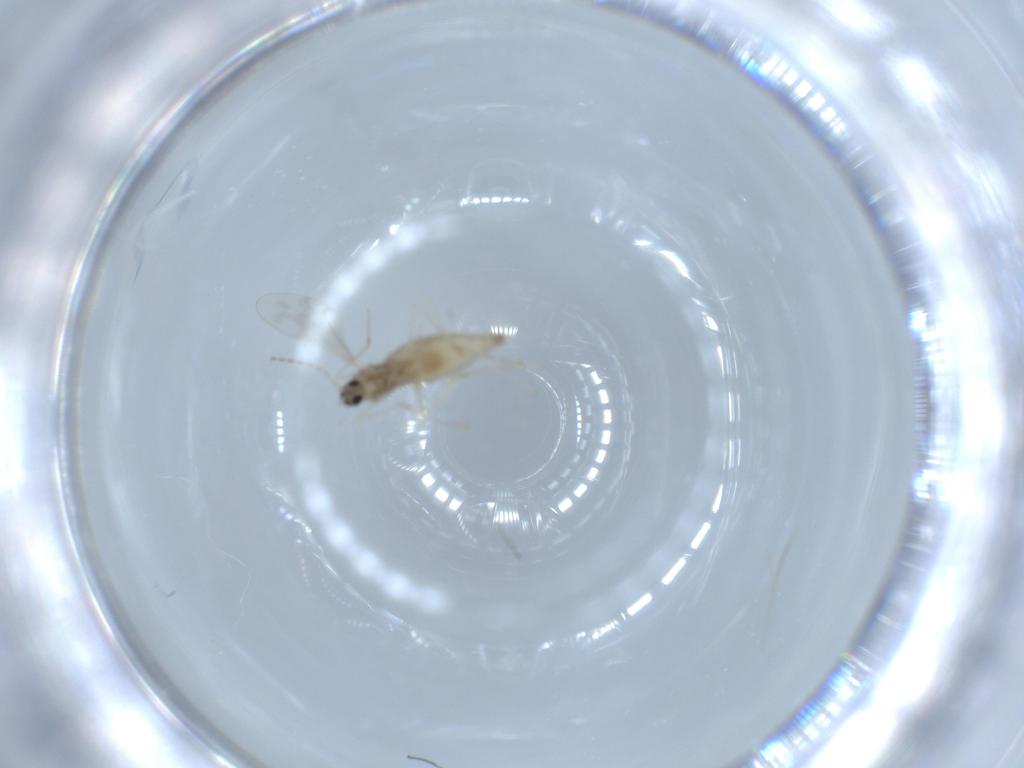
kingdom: Animalia
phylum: Arthropoda
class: Insecta
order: Diptera
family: Cecidomyiidae
